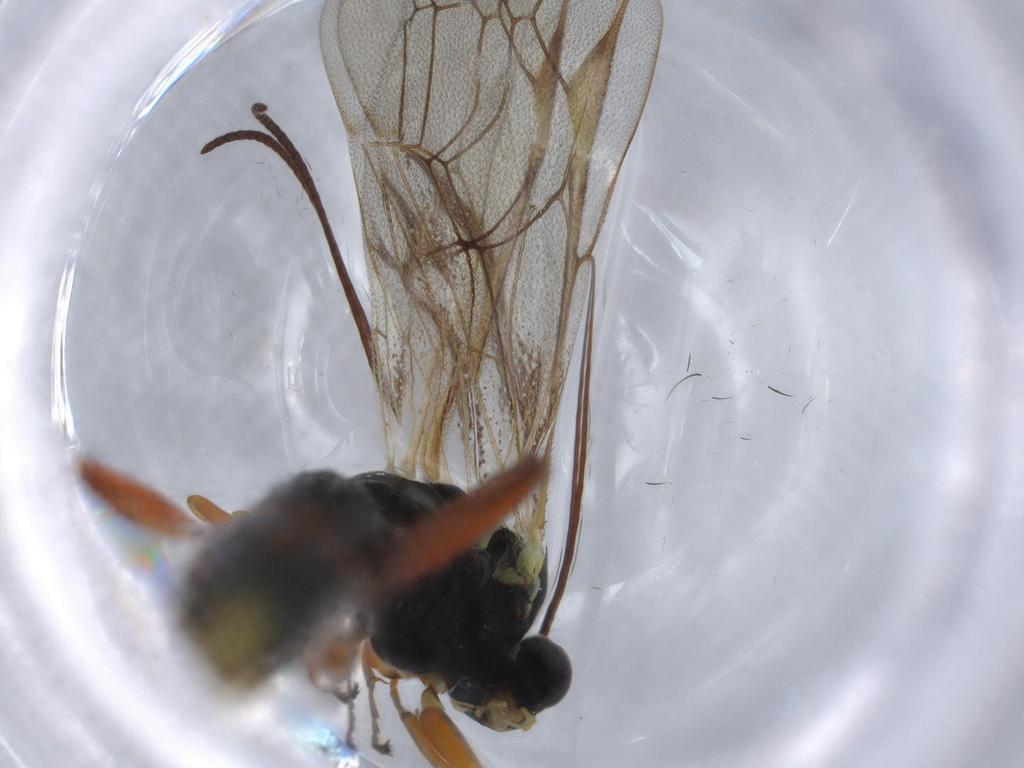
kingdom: Animalia
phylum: Arthropoda
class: Insecta
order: Hymenoptera
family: Ichneumonidae
